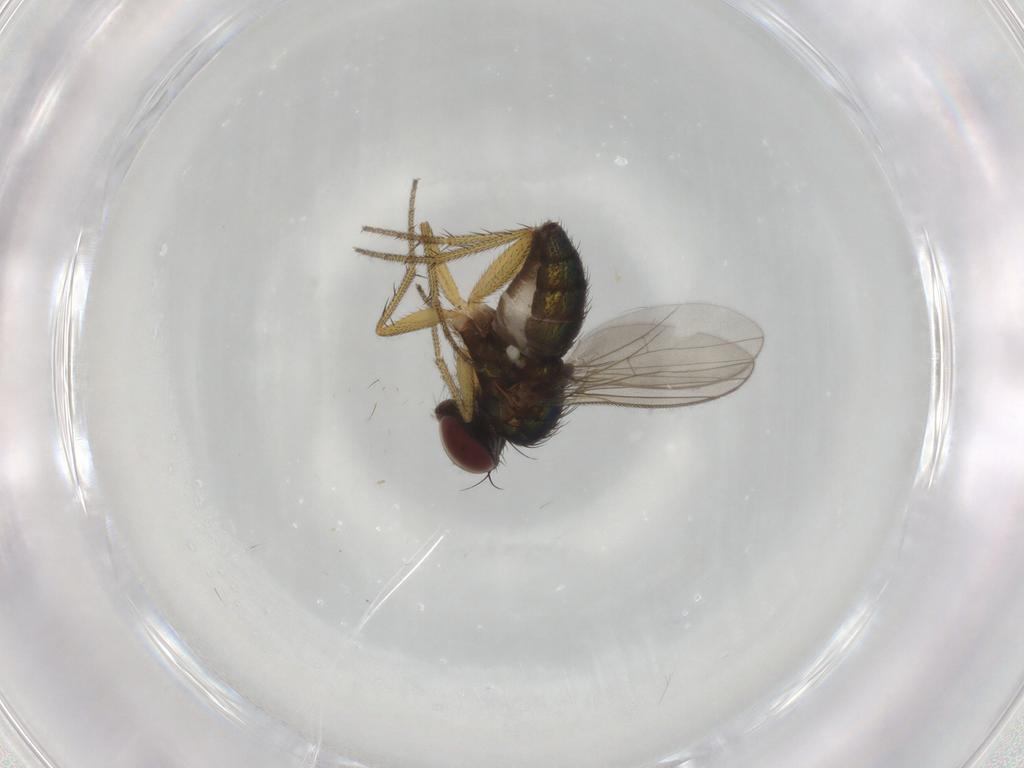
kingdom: Animalia
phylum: Arthropoda
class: Insecta
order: Diptera
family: Dolichopodidae
